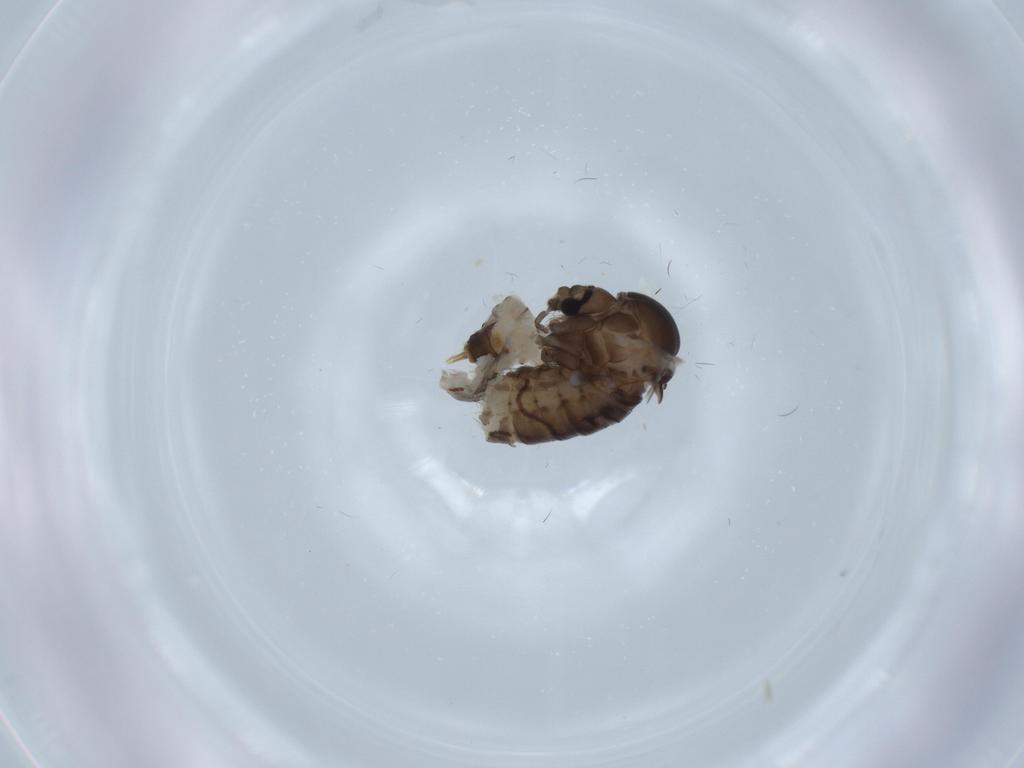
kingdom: Animalia
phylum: Arthropoda
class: Insecta
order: Diptera
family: Psychodidae
